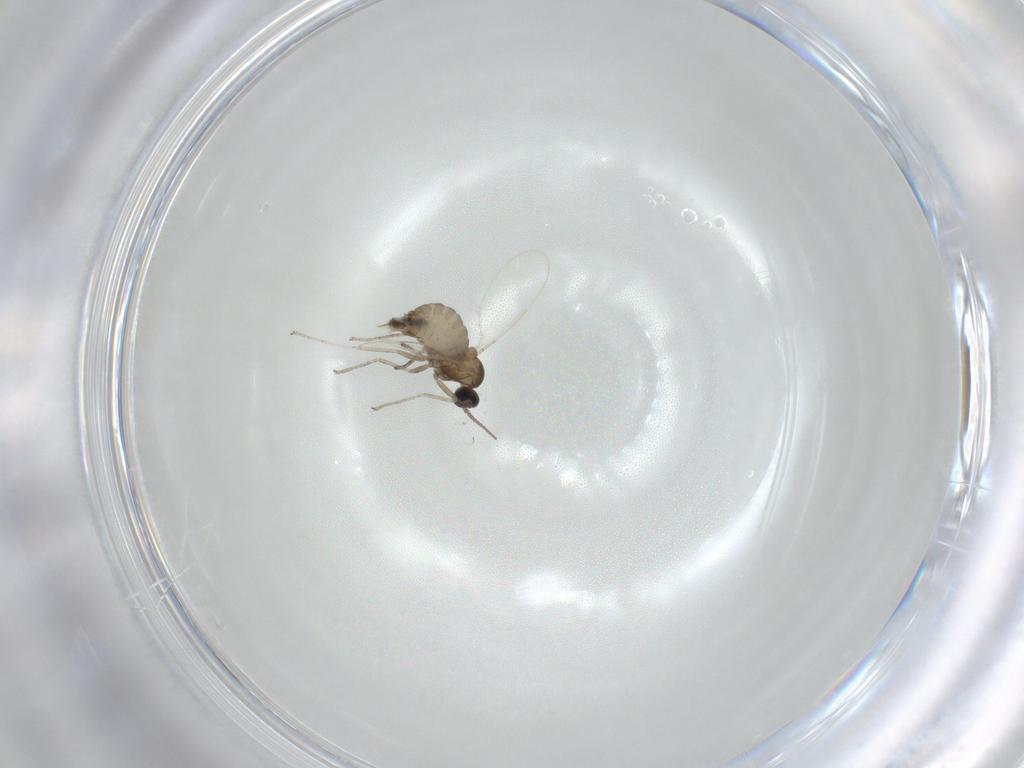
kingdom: Animalia
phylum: Arthropoda
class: Insecta
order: Diptera
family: Cecidomyiidae
